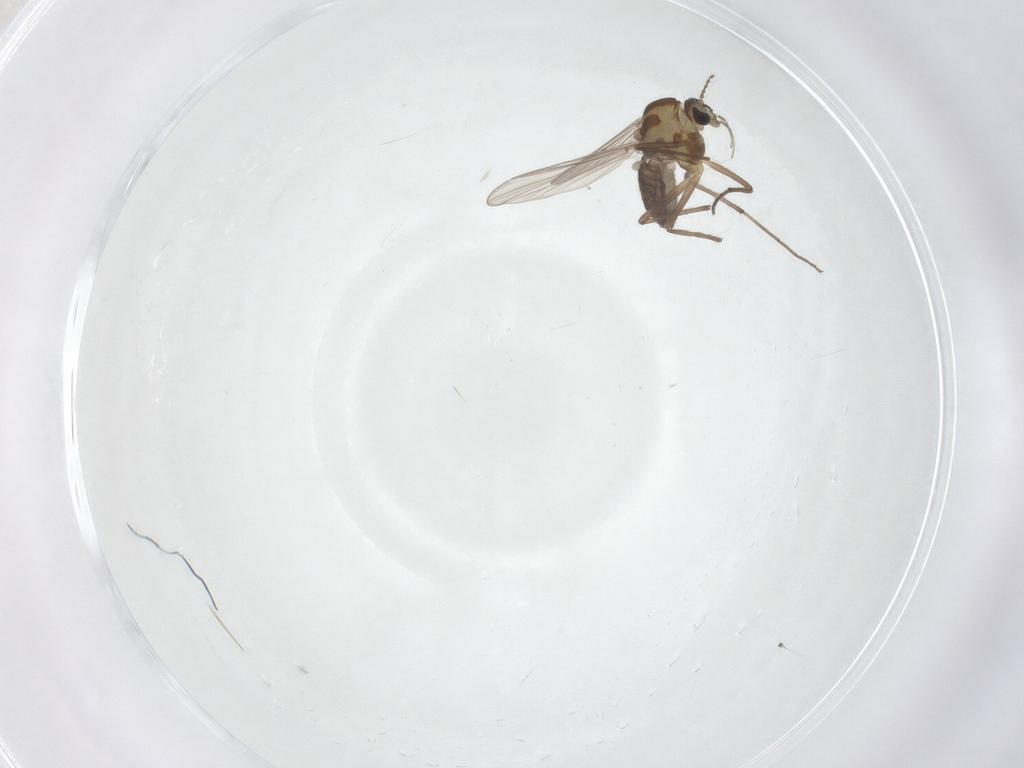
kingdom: Animalia
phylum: Arthropoda
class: Insecta
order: Diptera
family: Chironomidae
